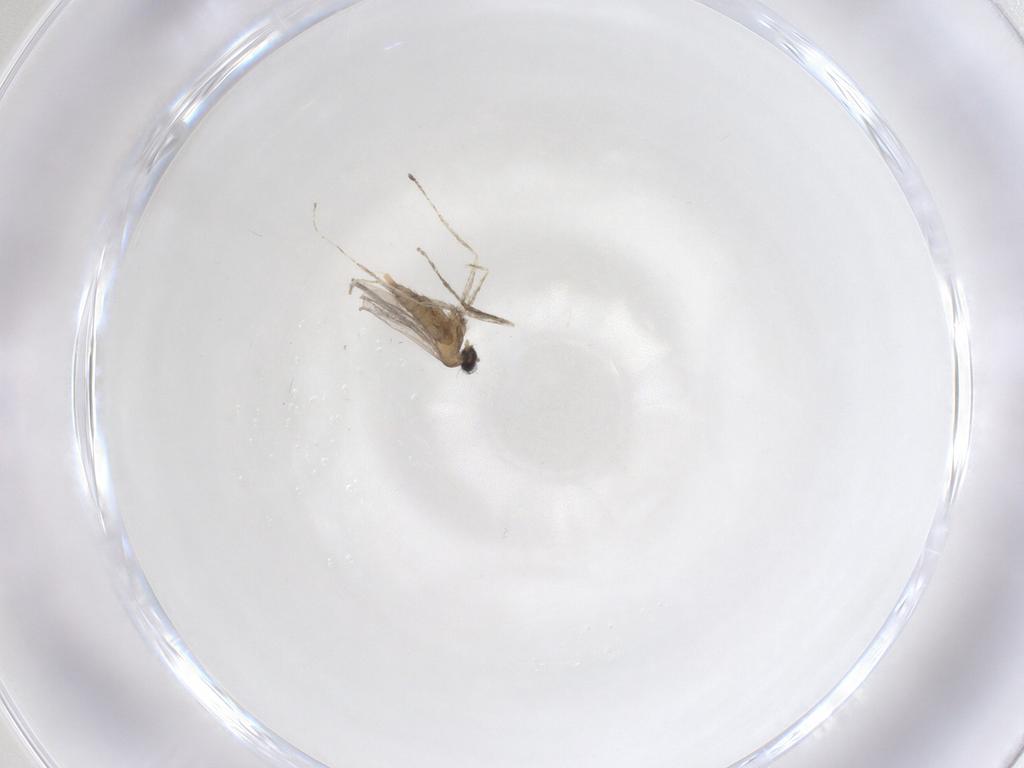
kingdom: Animalia
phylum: Arthropoda
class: Insecta
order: Diptera
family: Cecidomyiidae
